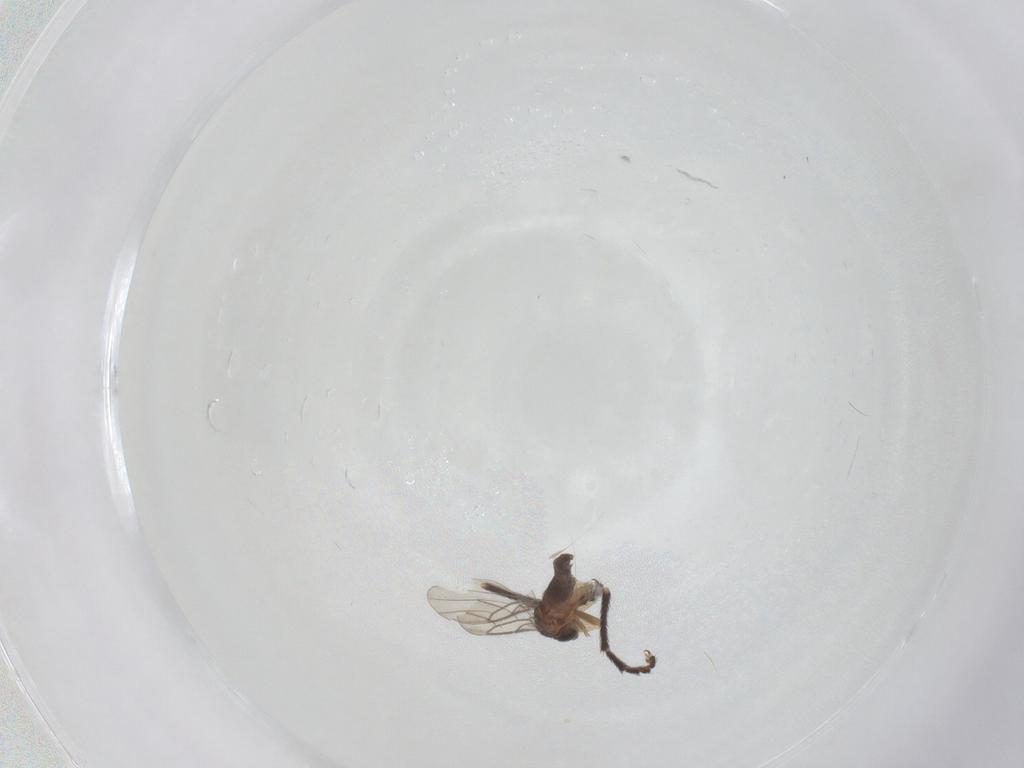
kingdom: Animalia
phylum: Arthropoda
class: Insecta
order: Diptera
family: Micropezidae
